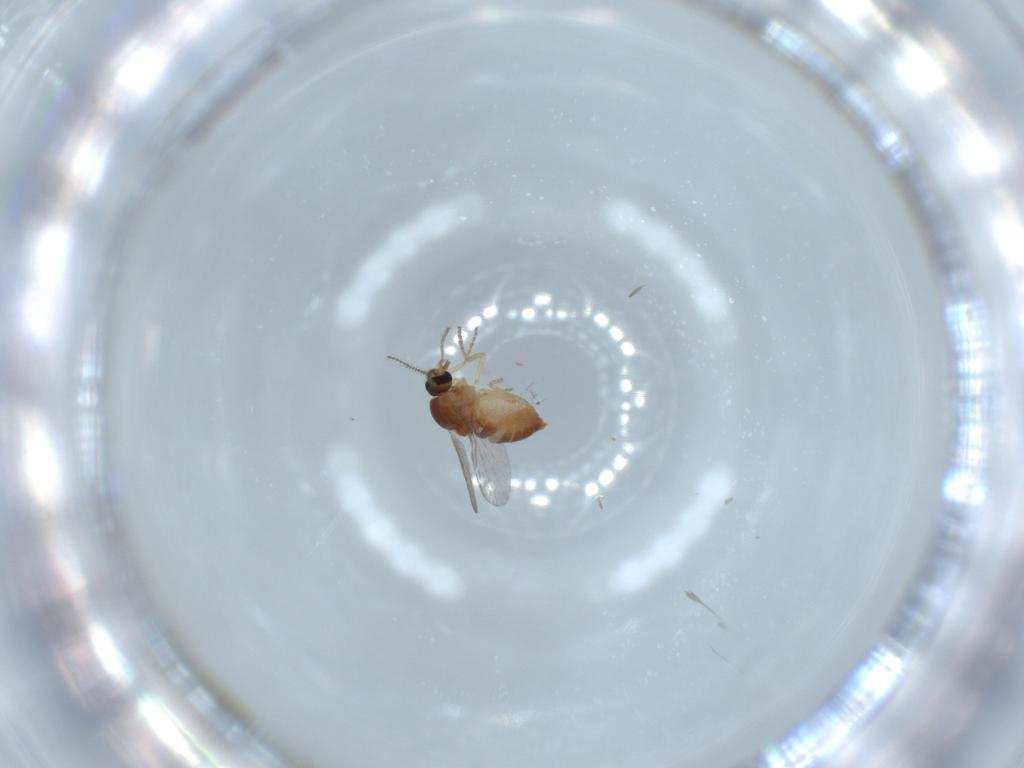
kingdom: Animalia
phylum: Arthropoda
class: Insecta
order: Diptera
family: Ceratopogonidae
